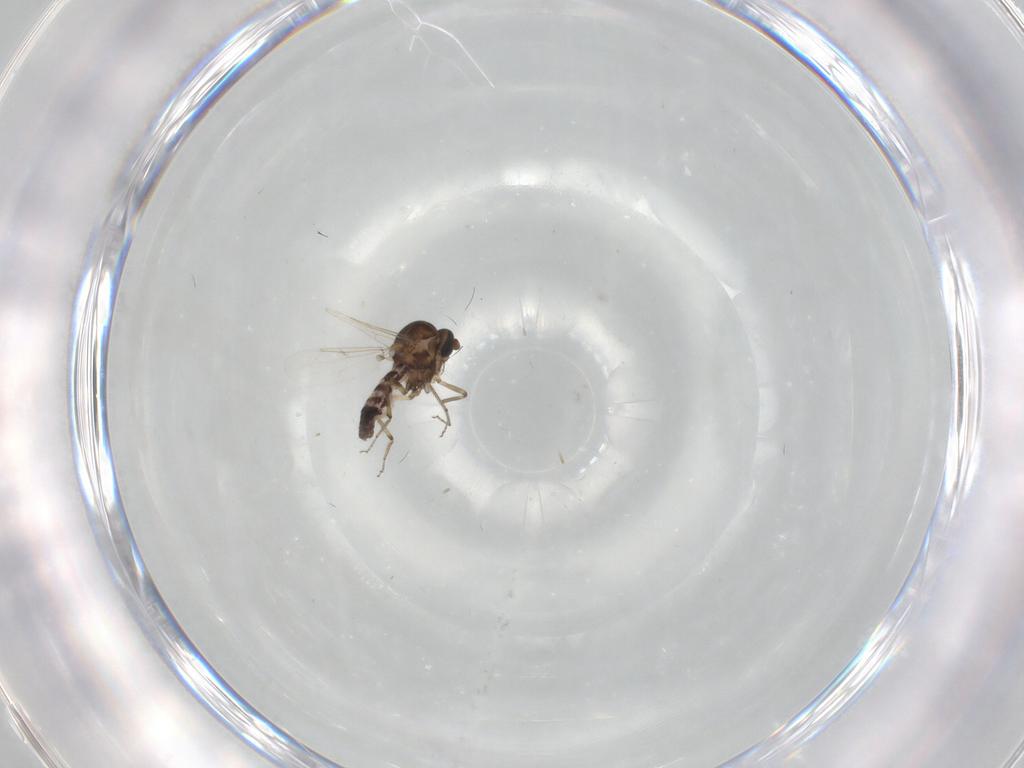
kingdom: Animalia
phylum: Arthropoda
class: Insecta
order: Diptera
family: Ceratopogonidae
